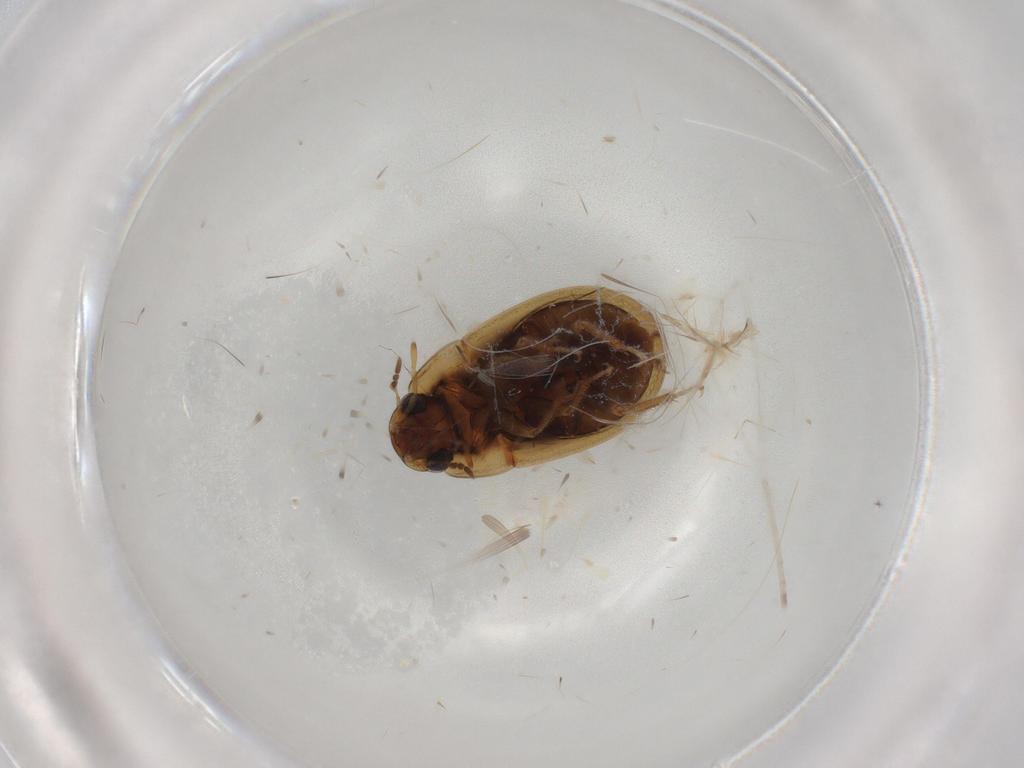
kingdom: Animalia
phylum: Arthropoda
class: Insecta
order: Coleoptera
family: Hydrophilidae
